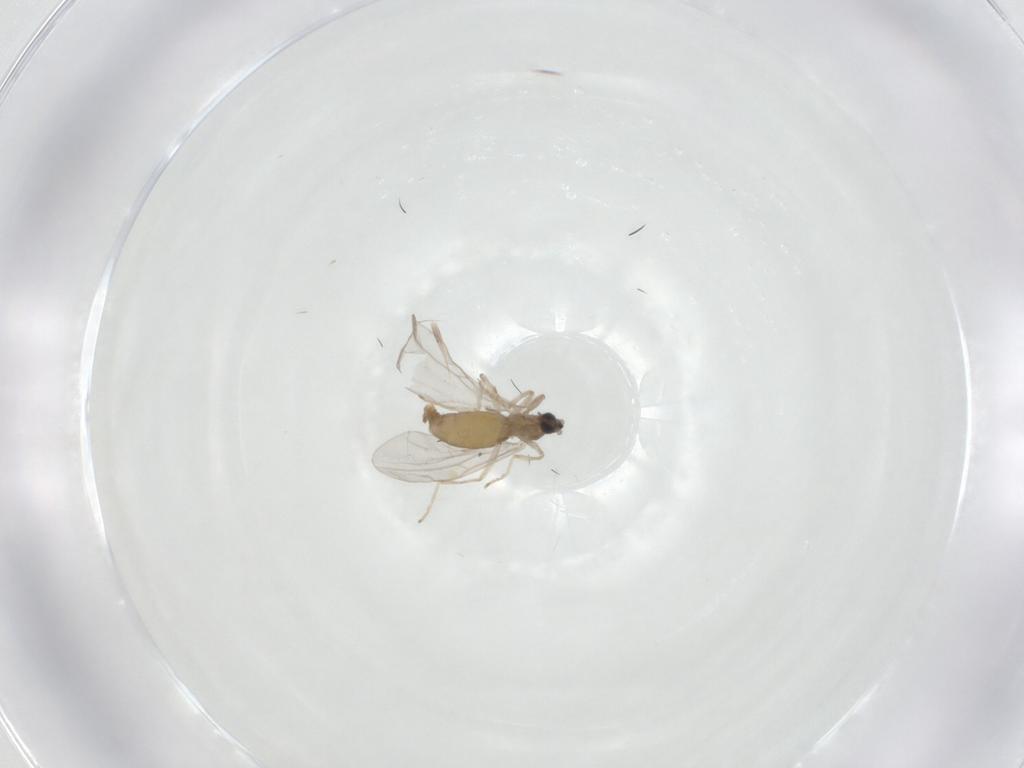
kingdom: Animalia
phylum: Arthropoda
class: Insecta
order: Diptera
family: Cecidomyiidae
